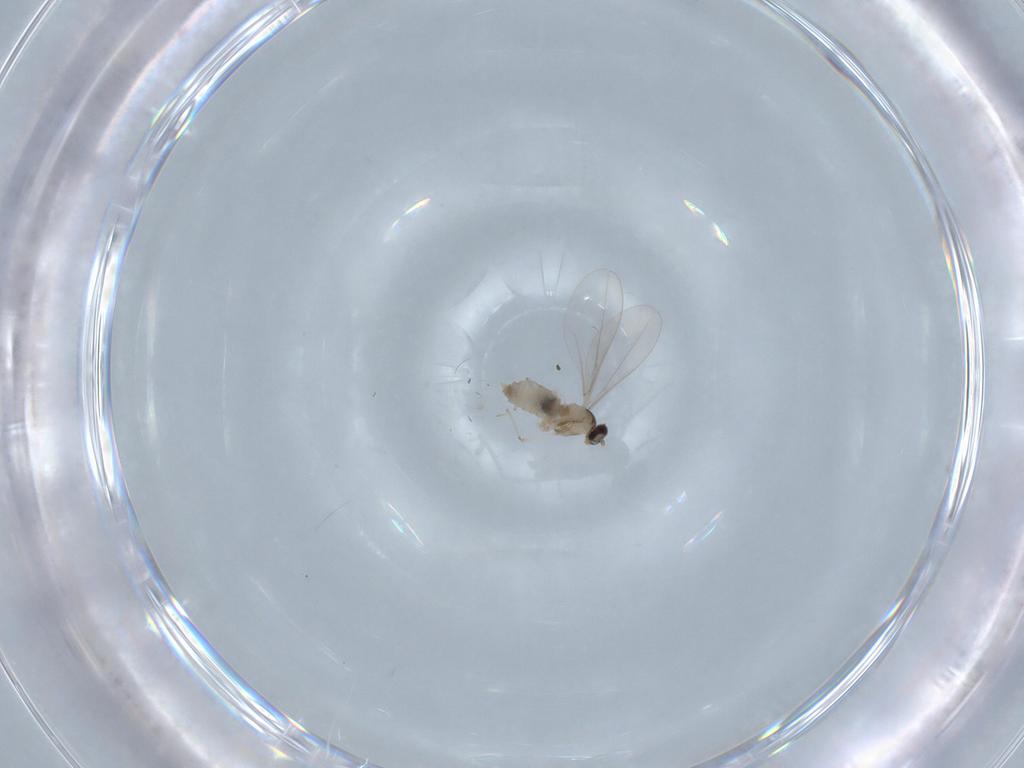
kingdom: Animalia
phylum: Arthropoda
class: Insecta
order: Diptera
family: Cecidomyiidae
